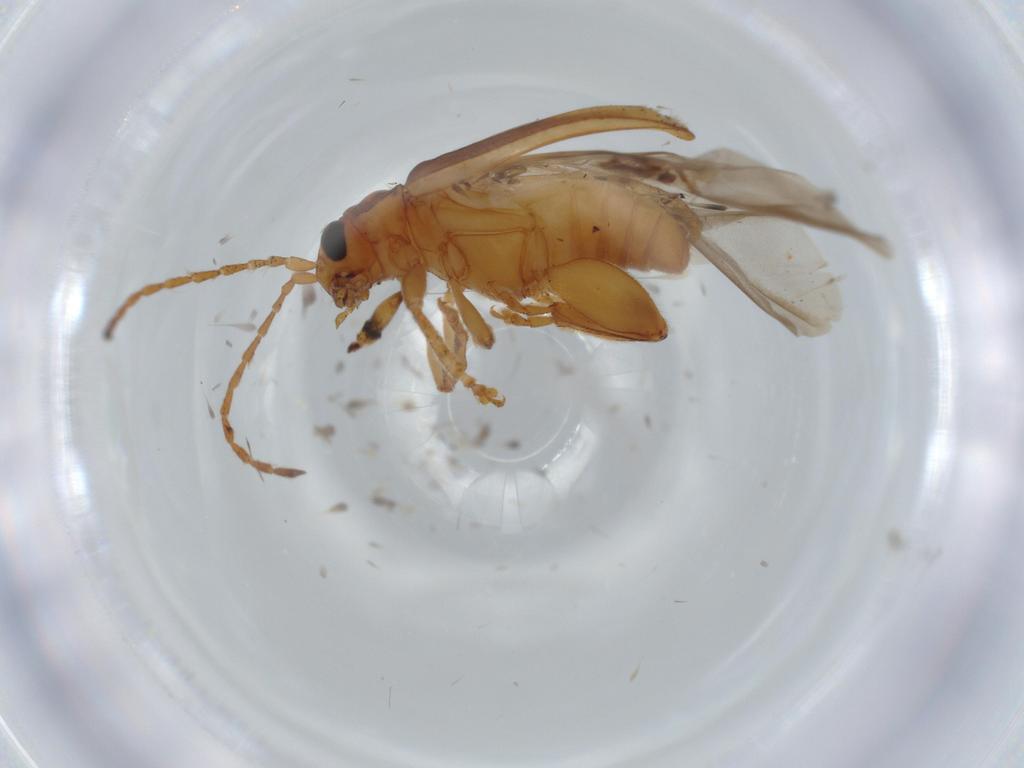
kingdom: Animalia
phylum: Arthropoda
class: Insecta
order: Coleoptera
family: Chrysomelidae
